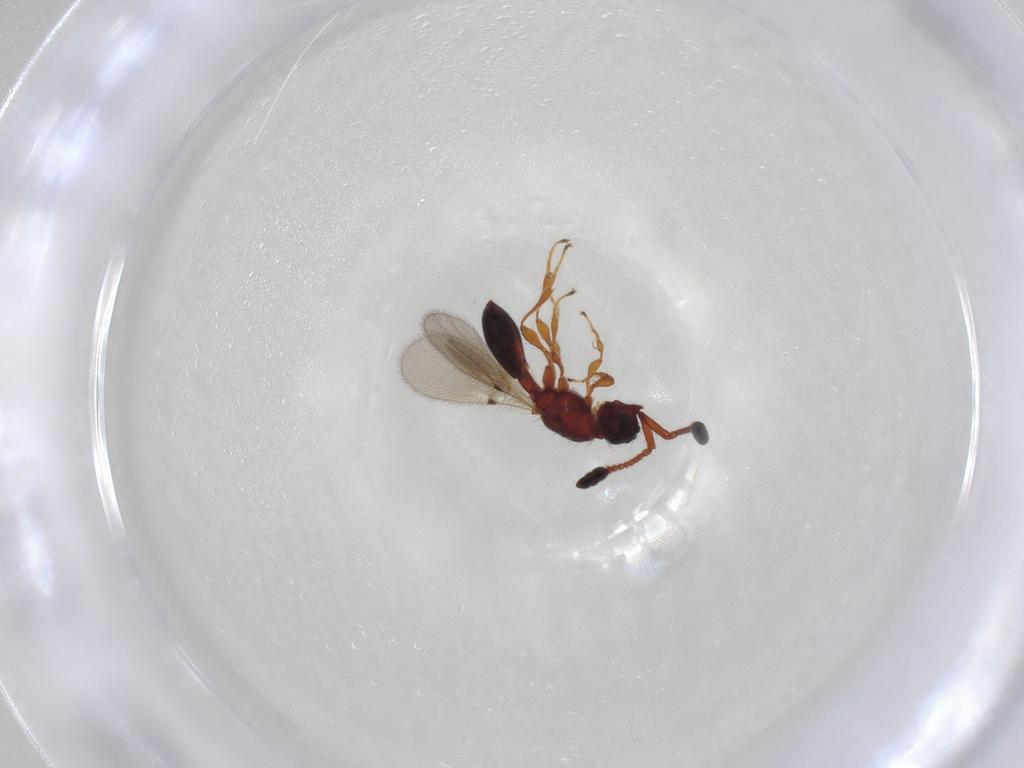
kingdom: Animalia
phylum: Arthropoda
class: Insecta
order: Hymenoptera
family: Diapriidae
